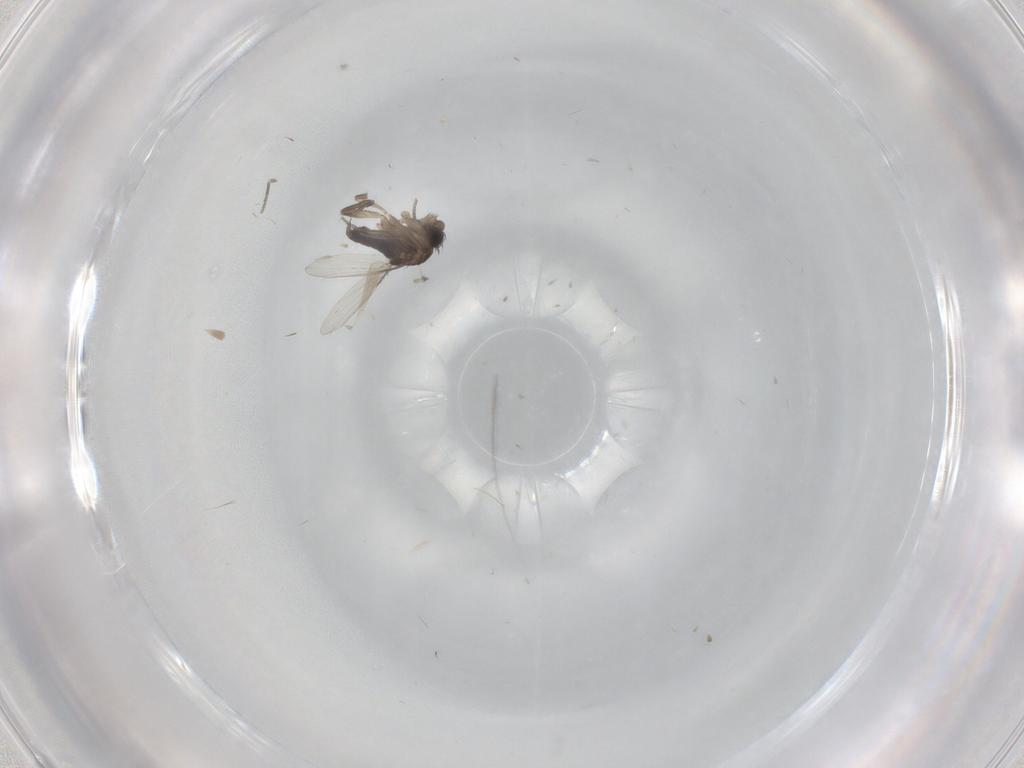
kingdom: Animalia
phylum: Arthropoda
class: Insecta
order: Diptera
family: Phoridae
